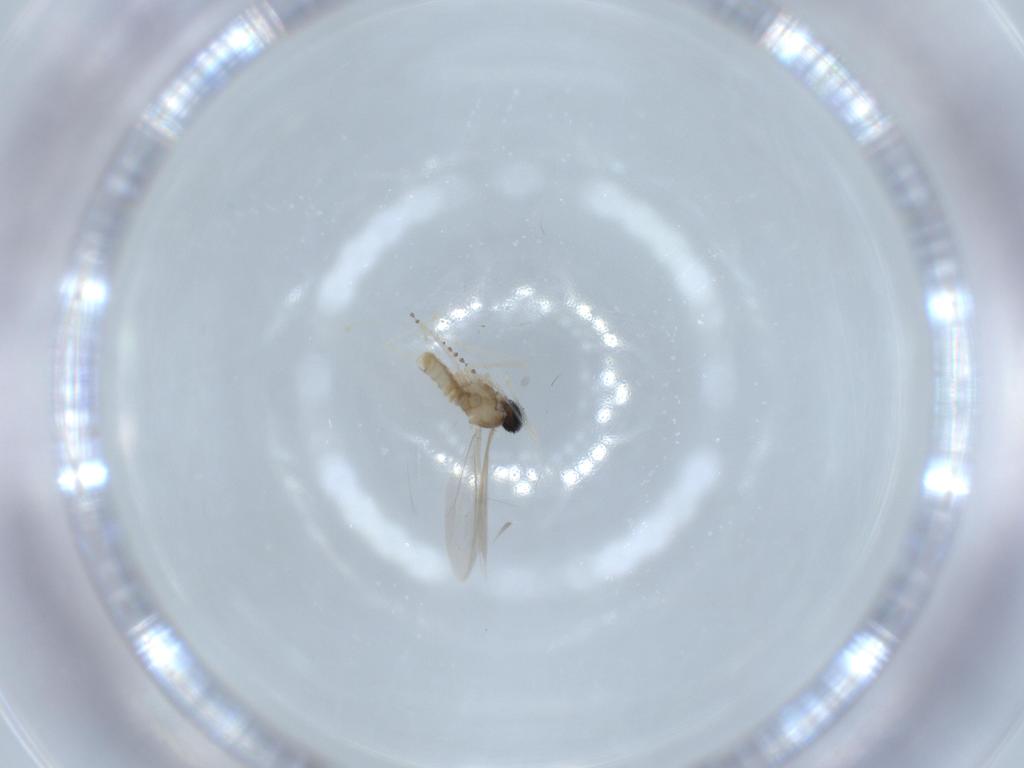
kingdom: Animalia
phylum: Arthropoda
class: Insecta
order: Diptera
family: Cecidomyiidae
